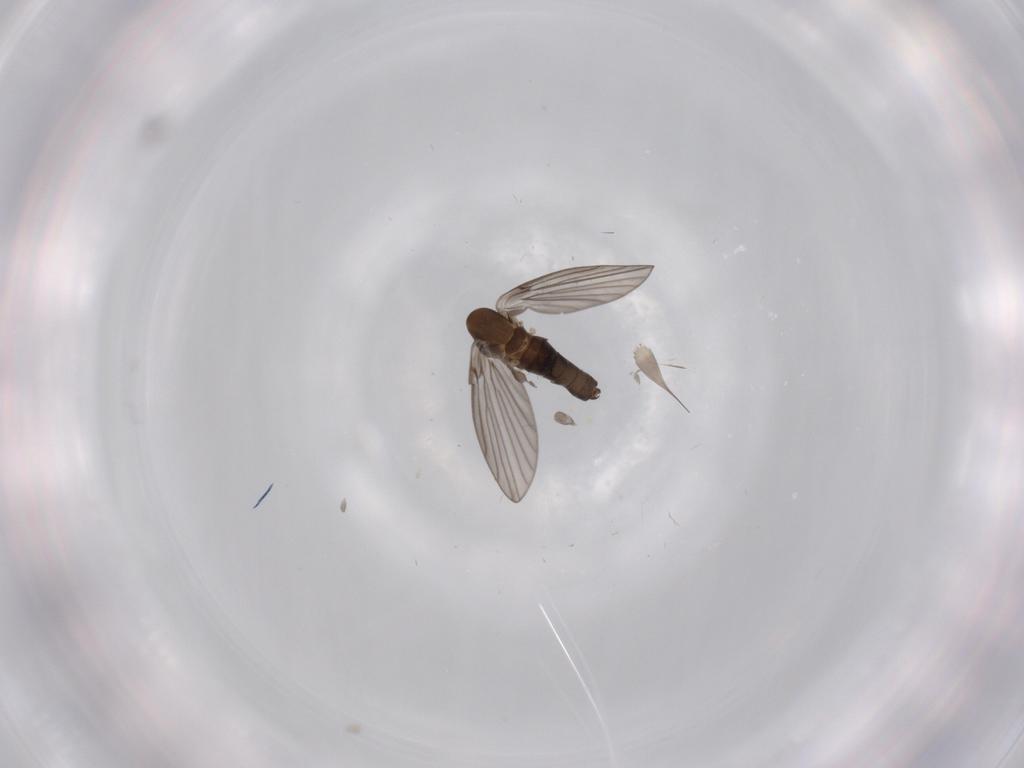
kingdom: Animalia
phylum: Arthropoda
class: Insecta
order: Diptera
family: Psychodidae
